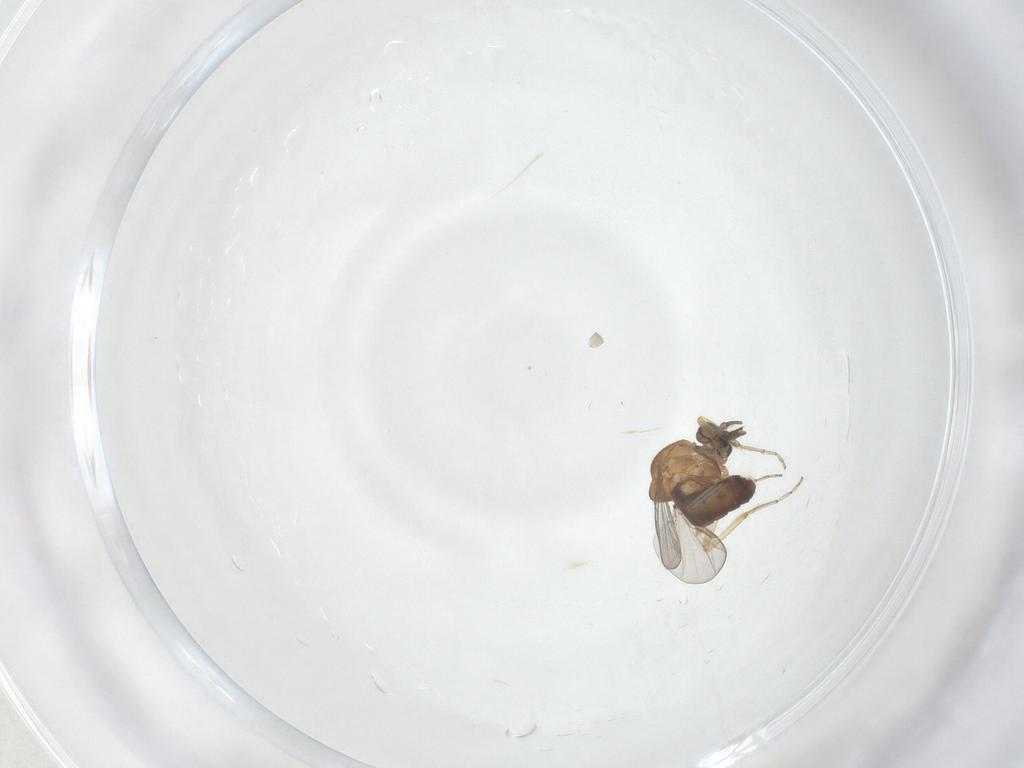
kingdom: Animalia
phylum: Arthropoda
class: Insecta
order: Diptera
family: Ceratopogonidae
